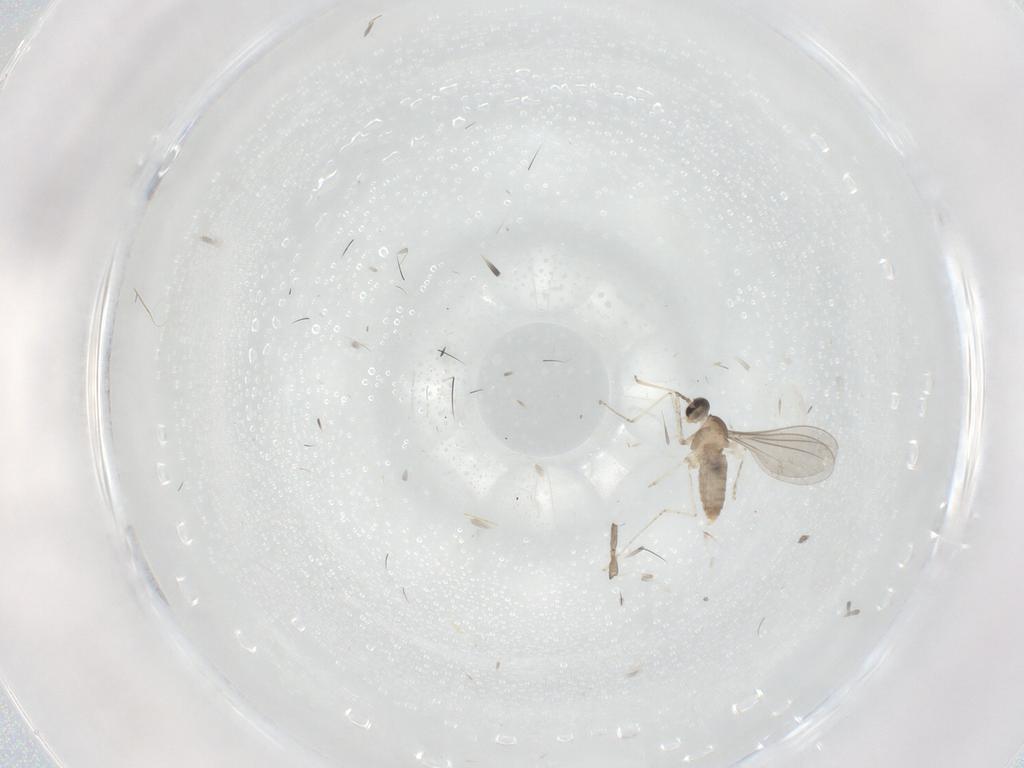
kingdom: Animalia
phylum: Arthropoda
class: Insecta
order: Diptera
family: Sciaridae
